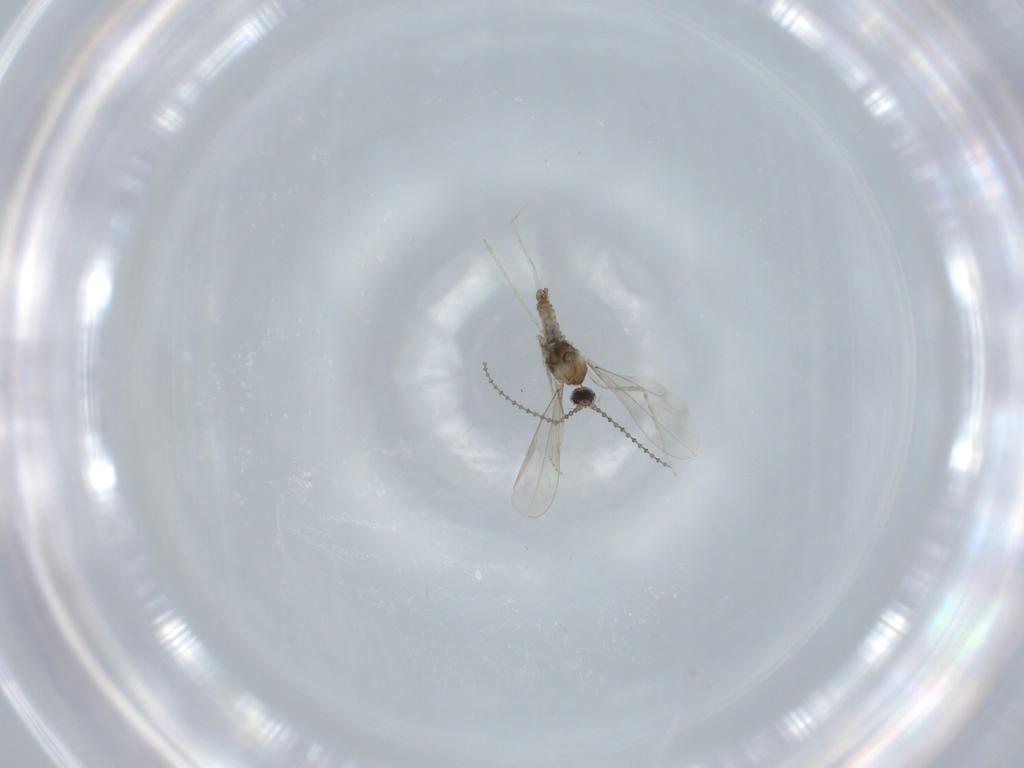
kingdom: Animalia
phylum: Arthropoda
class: Insecta
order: Diptera
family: Cecidomyiidae
